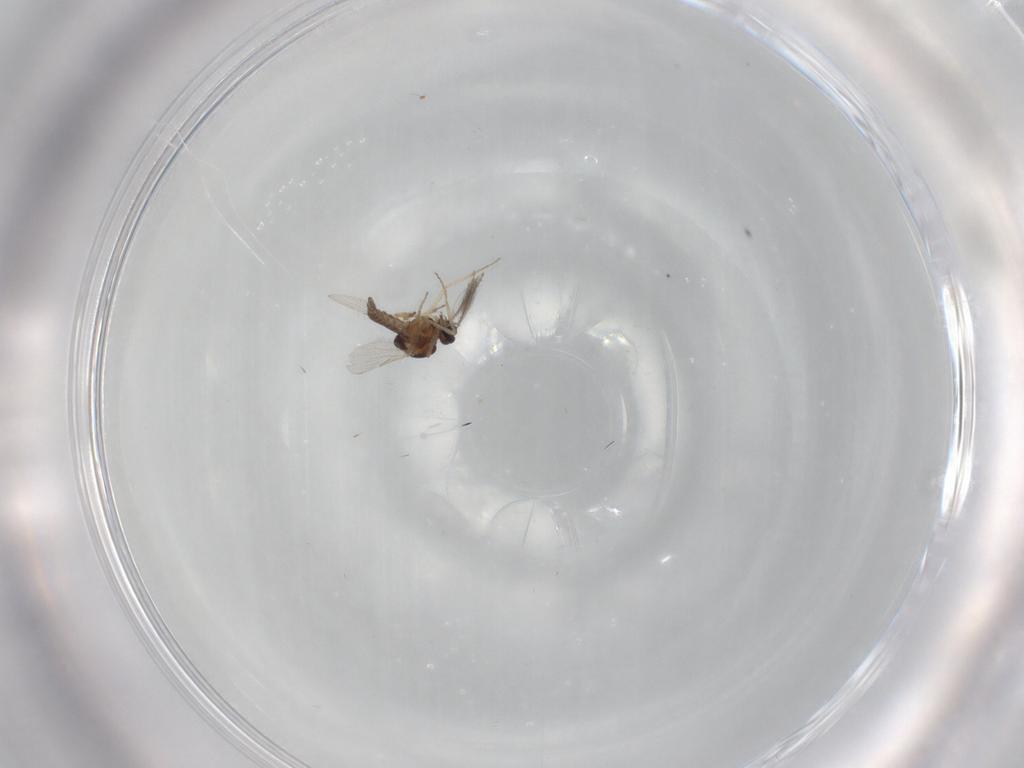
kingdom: Animalia
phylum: Arthropoda
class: Insecta
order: Diptera
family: Ceratopogonidae
